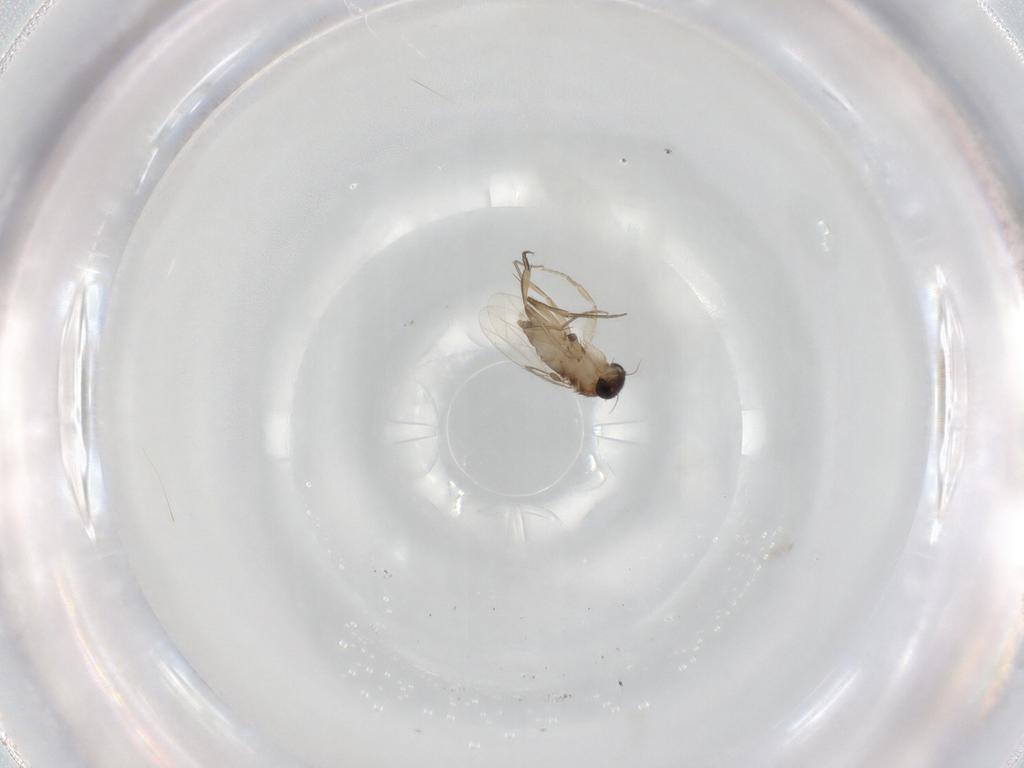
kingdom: Animalia
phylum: Arthropoda
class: Insecta
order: Diptera
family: Phoridae
